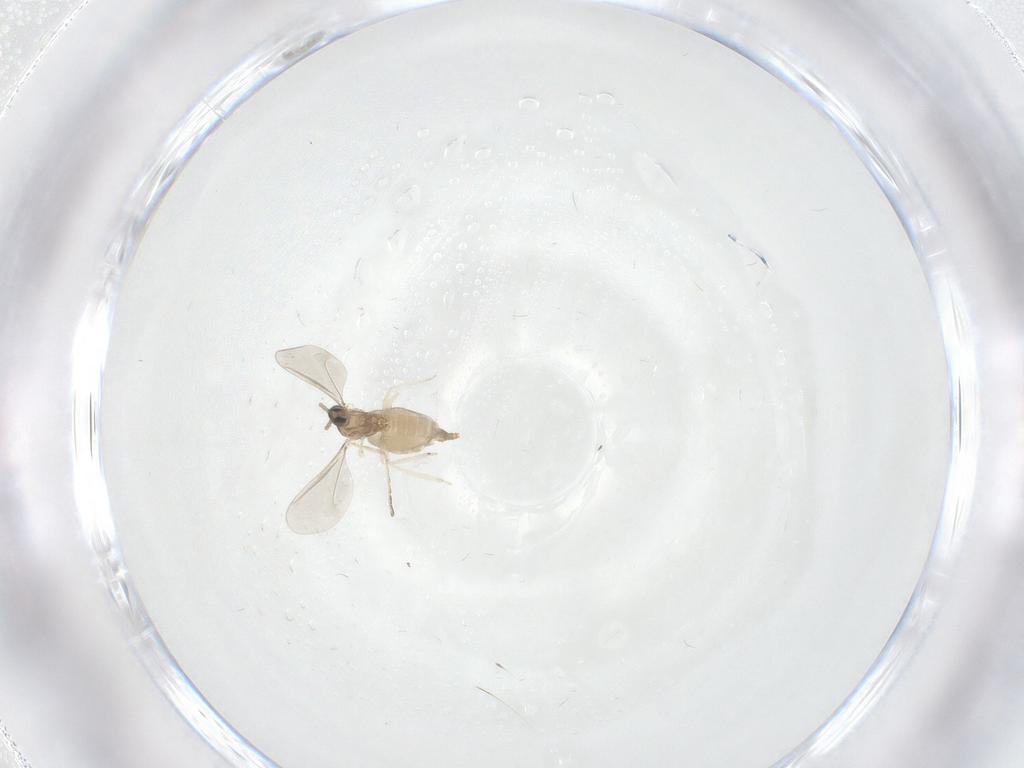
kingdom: Animalia
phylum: Arthropoda
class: Insecta
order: Diptera
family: Cecidomyiidae
